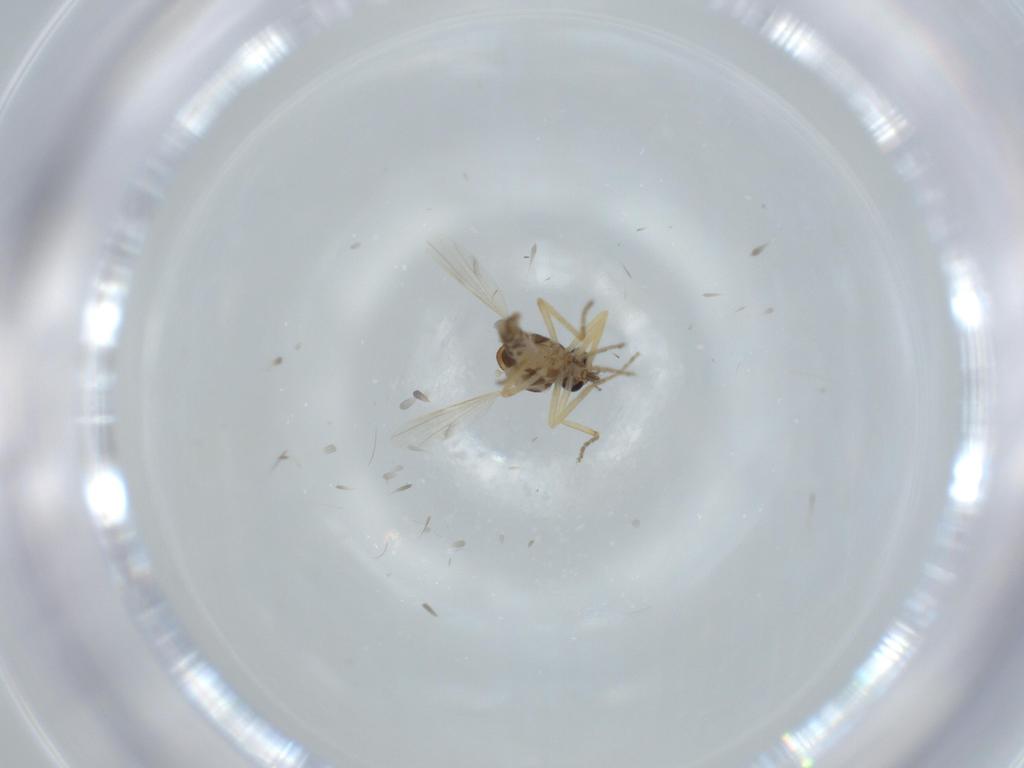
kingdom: Animalia
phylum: Arthropoda
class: Insecta
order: Diptera
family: Ceratopogonidae
